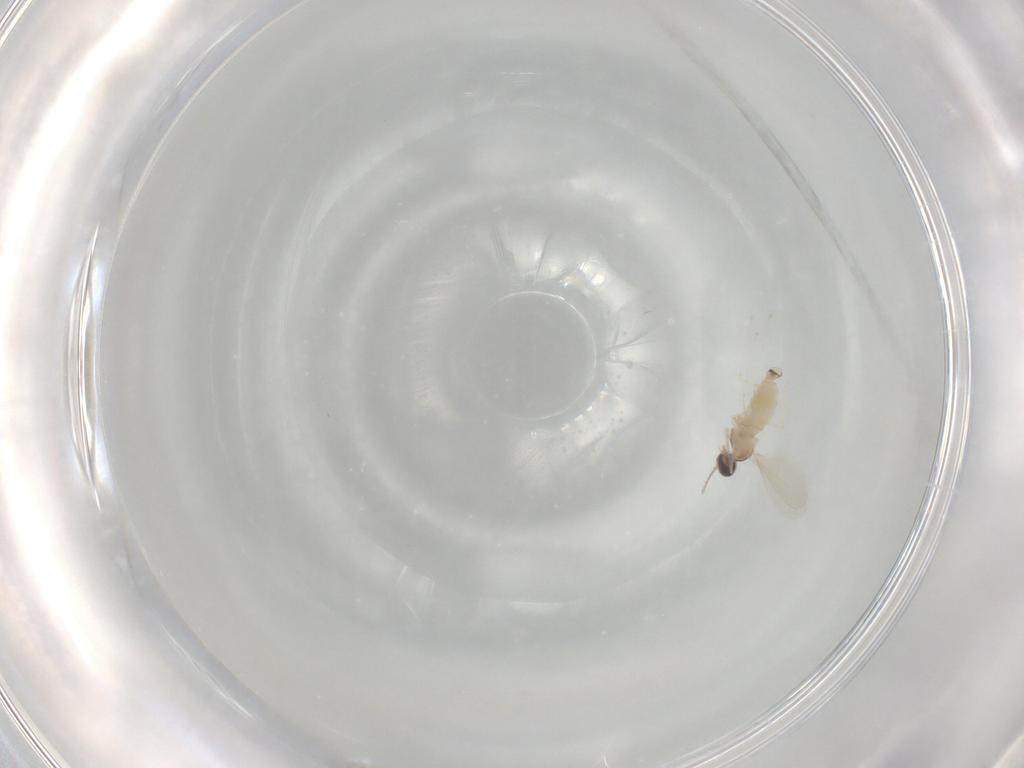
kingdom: Animalia
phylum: Arthropoda
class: Insecta
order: Diptera
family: Cecidomyiidae
